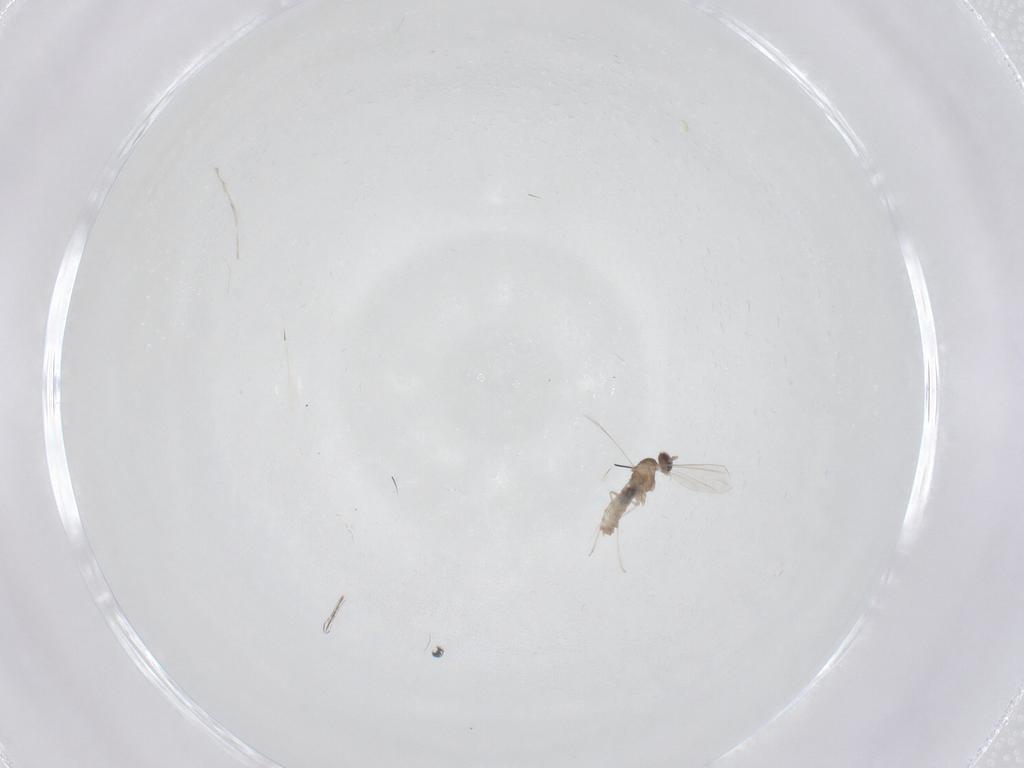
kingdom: Animalia
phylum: Arthropoda
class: Insecta
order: Diptera
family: Cecidomyiidae
